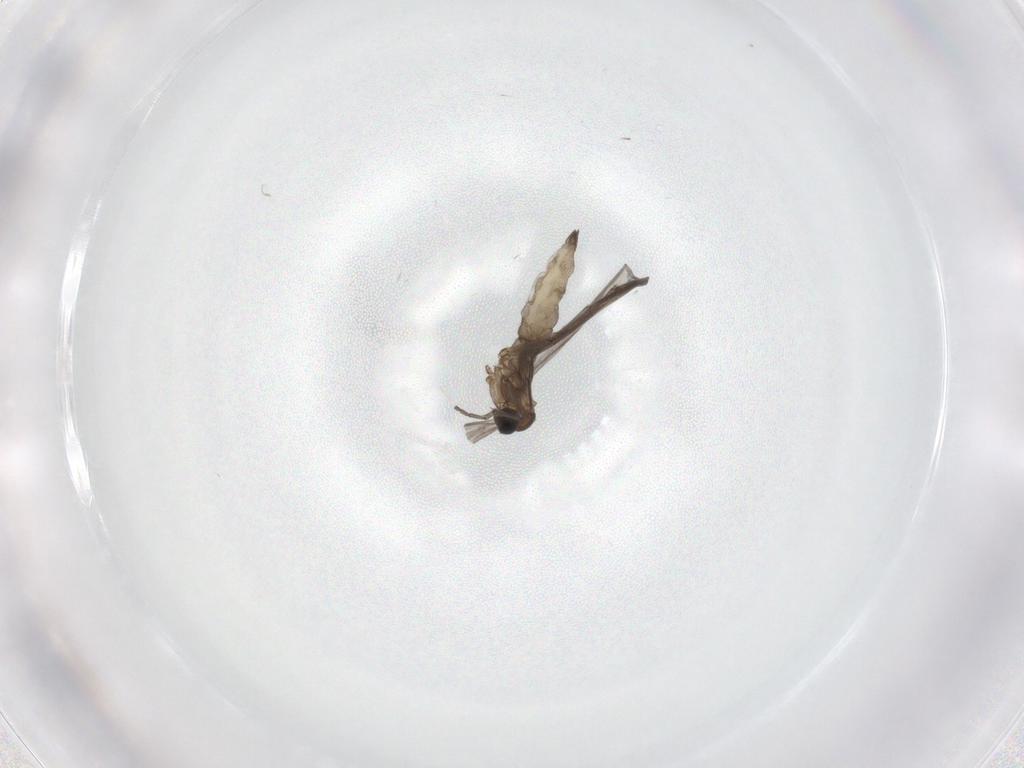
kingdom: Animalia
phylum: Arthropoda
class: Insecta
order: Diptera
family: Sciaridae
